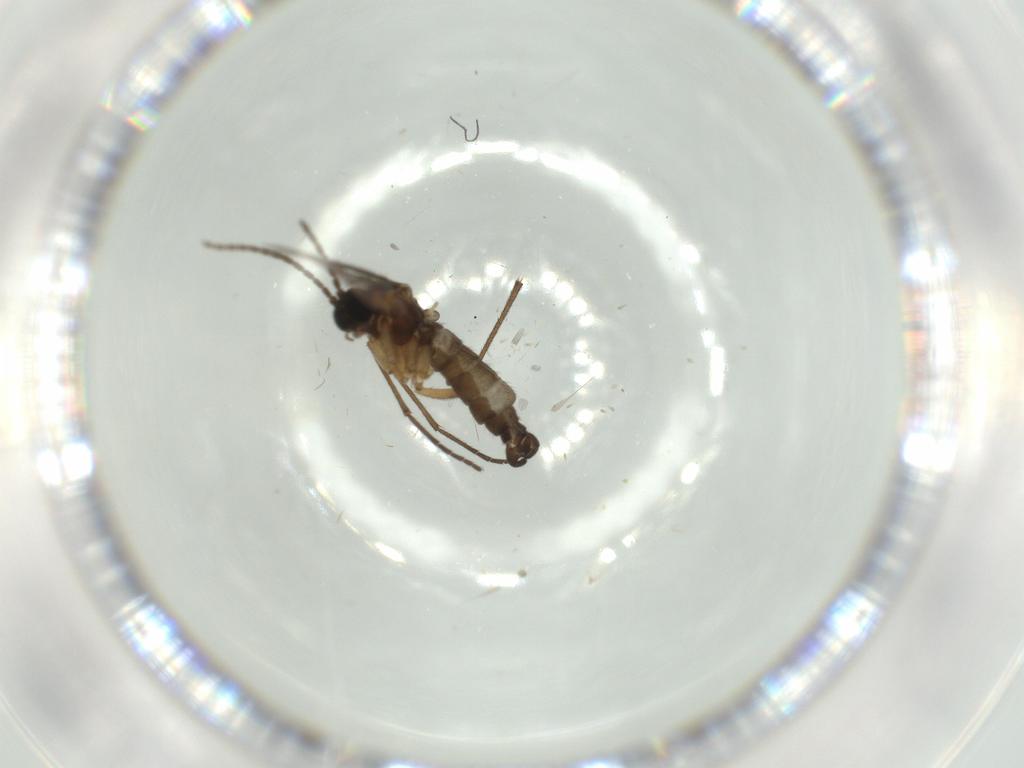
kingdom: Animalia
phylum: Arthropoda
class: Insecta
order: Diptera
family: Sciaridae
